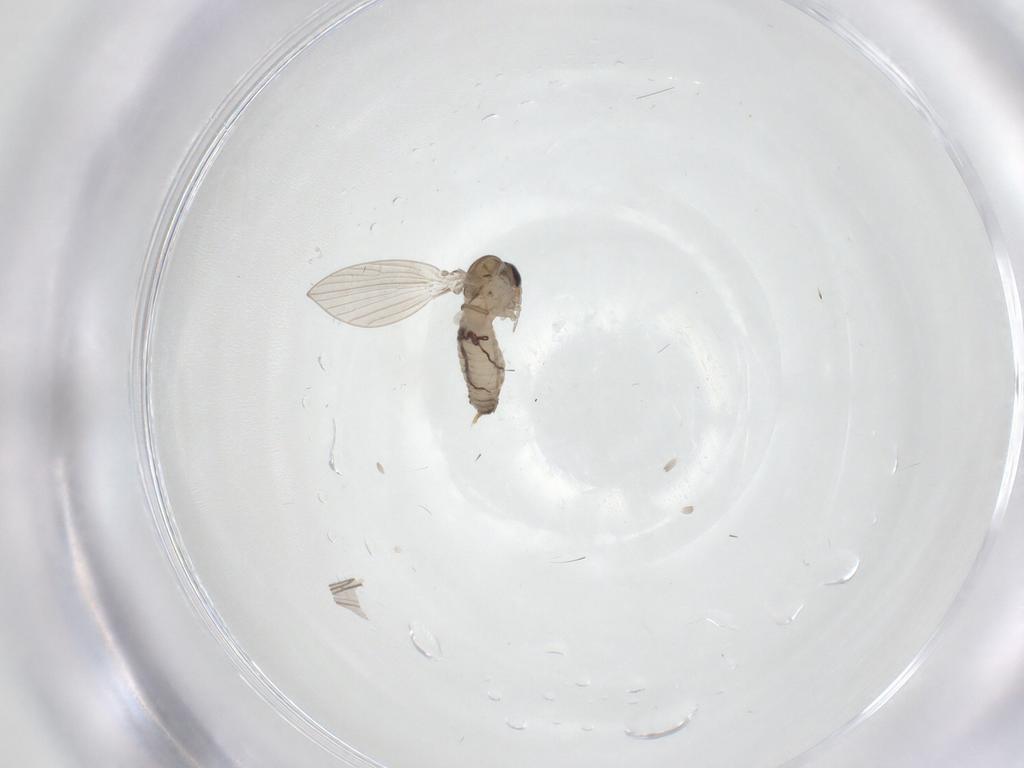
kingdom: Animalia
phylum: Arthropoda
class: Insecta
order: Diptera
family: Psychodidae
